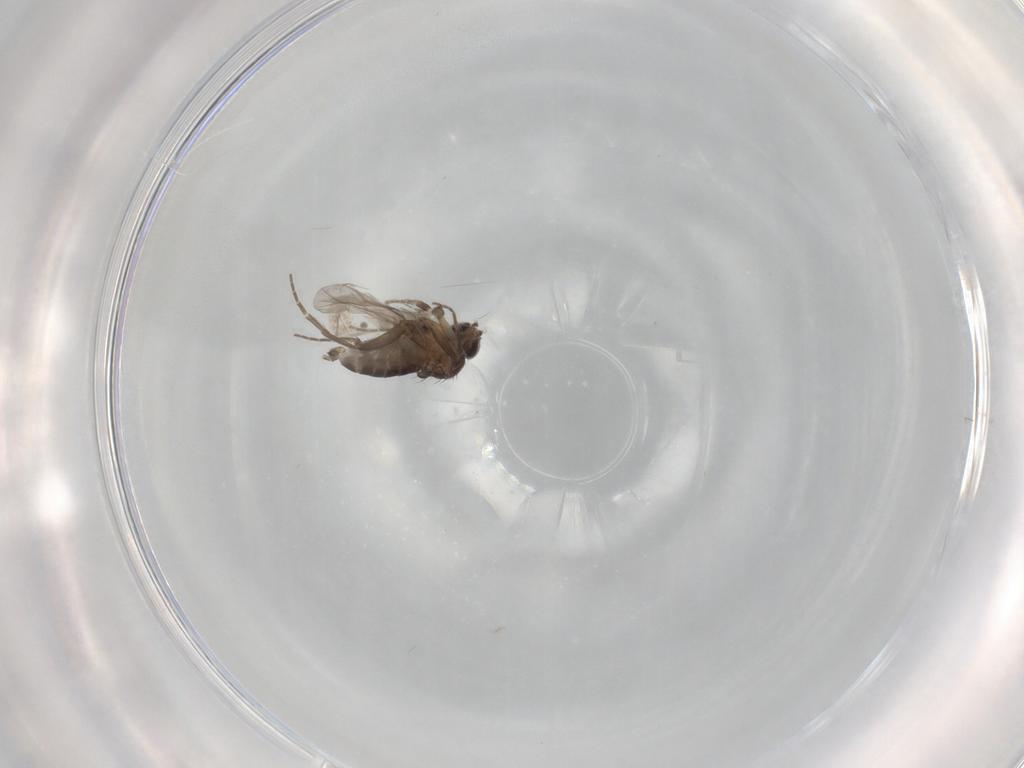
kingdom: Animalia
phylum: Arthropoda
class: Insecta
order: Diptera
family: Phoridae
